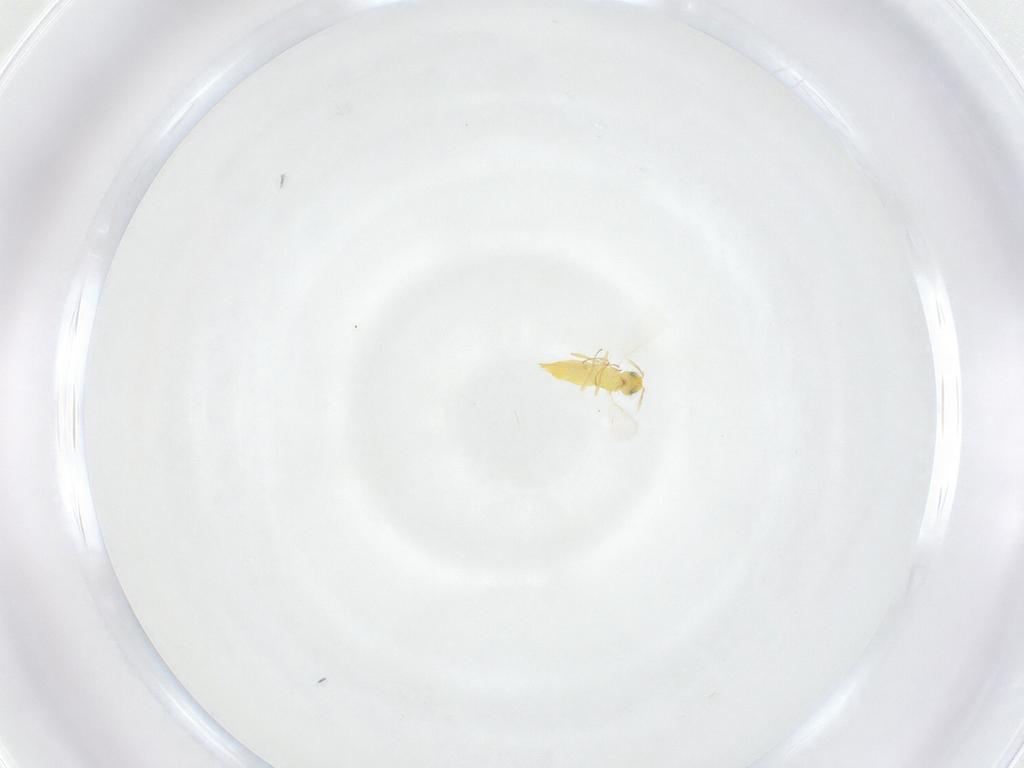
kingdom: Animalia
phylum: Arthropoda
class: Insecta
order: Hymenoptera
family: Aphelinidae
